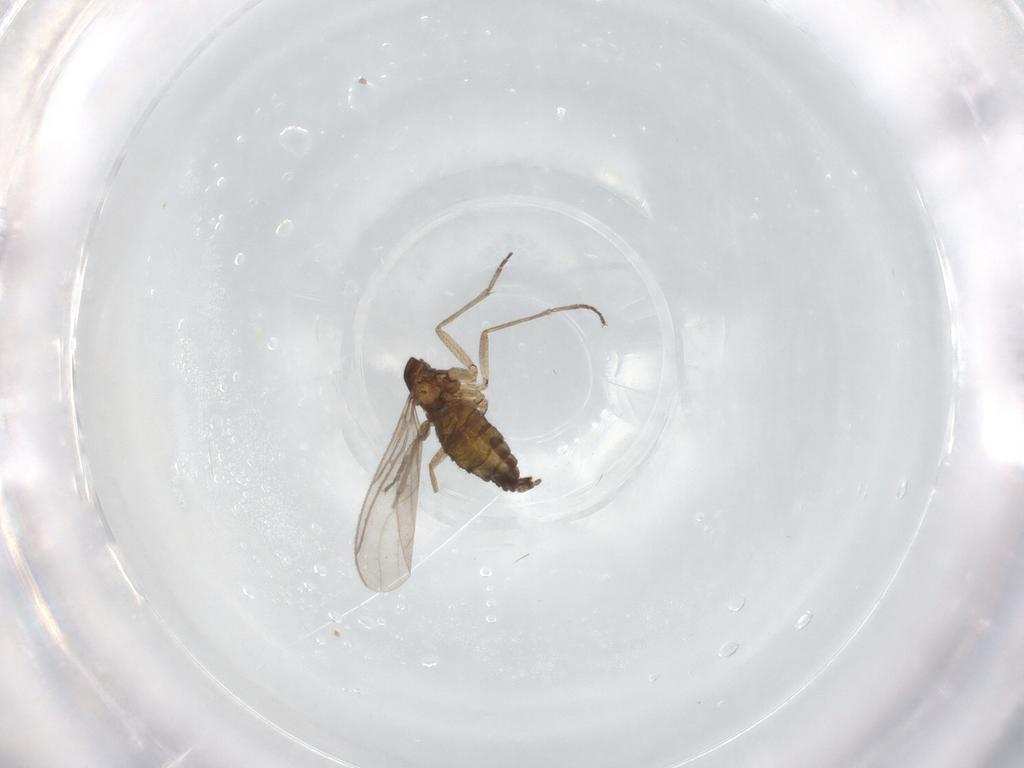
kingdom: Animalia
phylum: Arthropoda
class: Insecta
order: Diptera
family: Sciaridae
